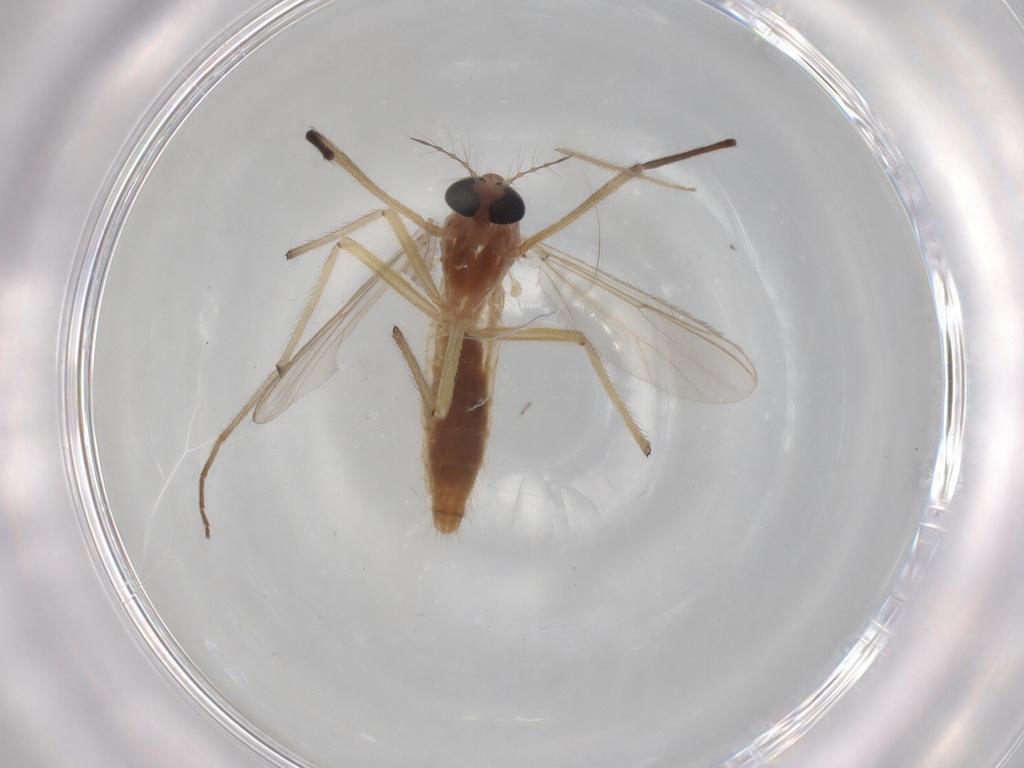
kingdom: Animalia
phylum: Arthropoda
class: Insecta
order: Diptera
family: Chironomidae
